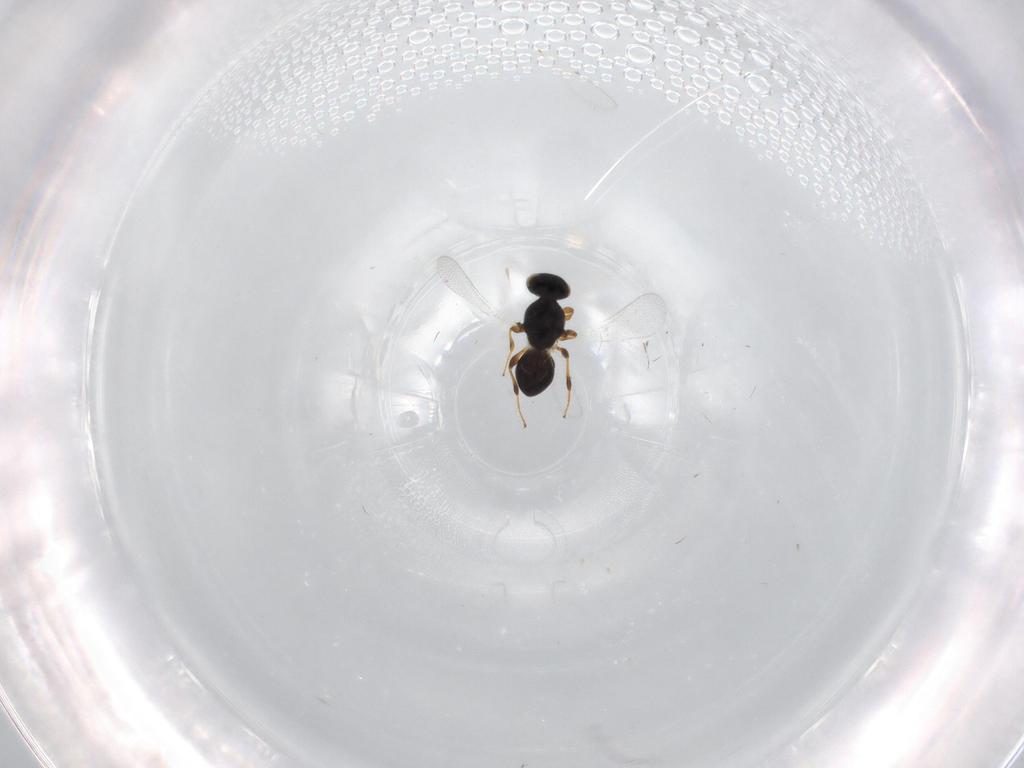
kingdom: Animalia
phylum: Arthropoda
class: Insecta
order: Hymenoptera
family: Platygastridae
